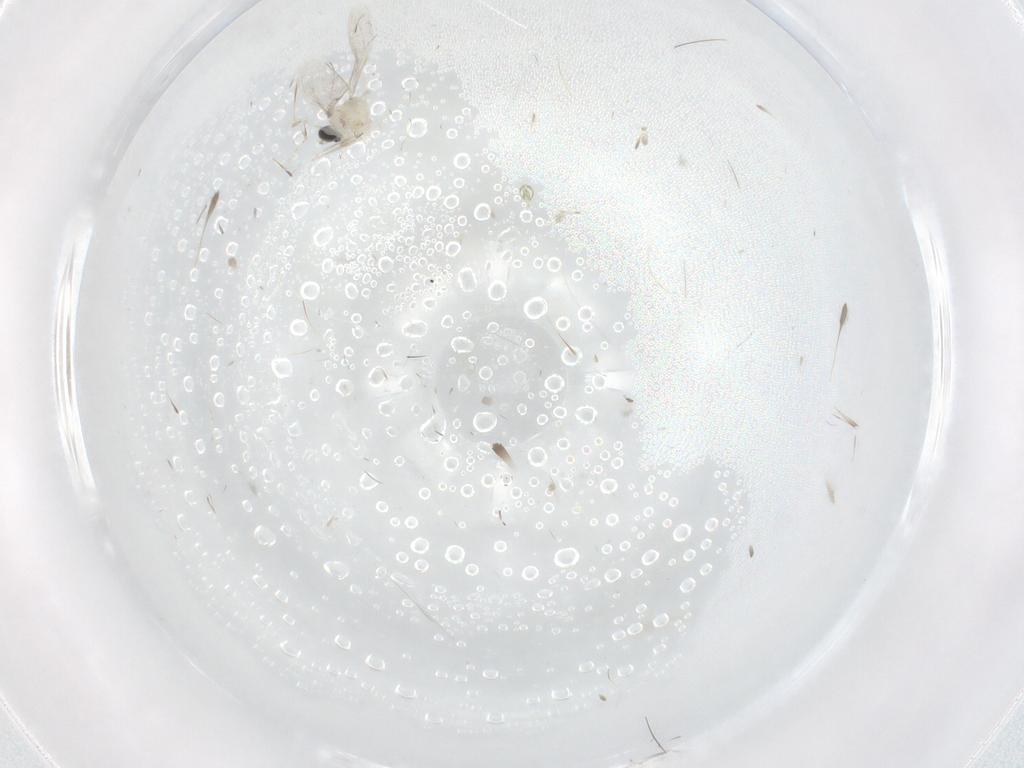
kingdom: Animalia
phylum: Arthropoda
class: Insecta
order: Diptera
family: Cecidomyiidae
